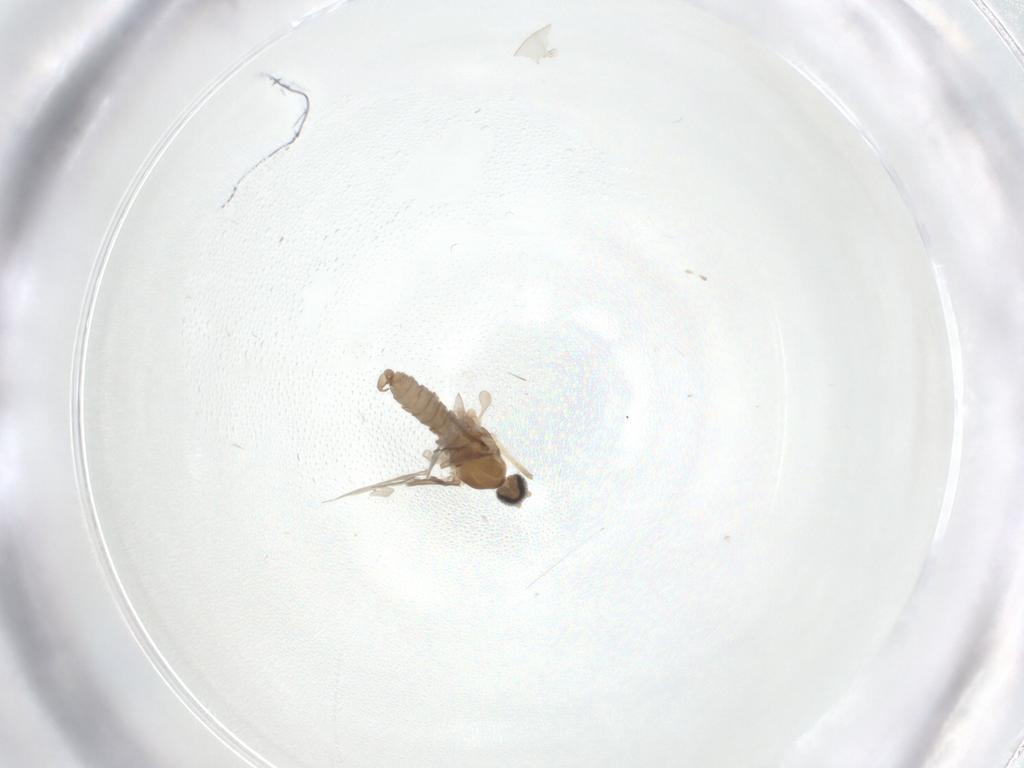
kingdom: Animalia
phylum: Arthropoda
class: Insecta
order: Diptera
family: Cecidomyiidae
